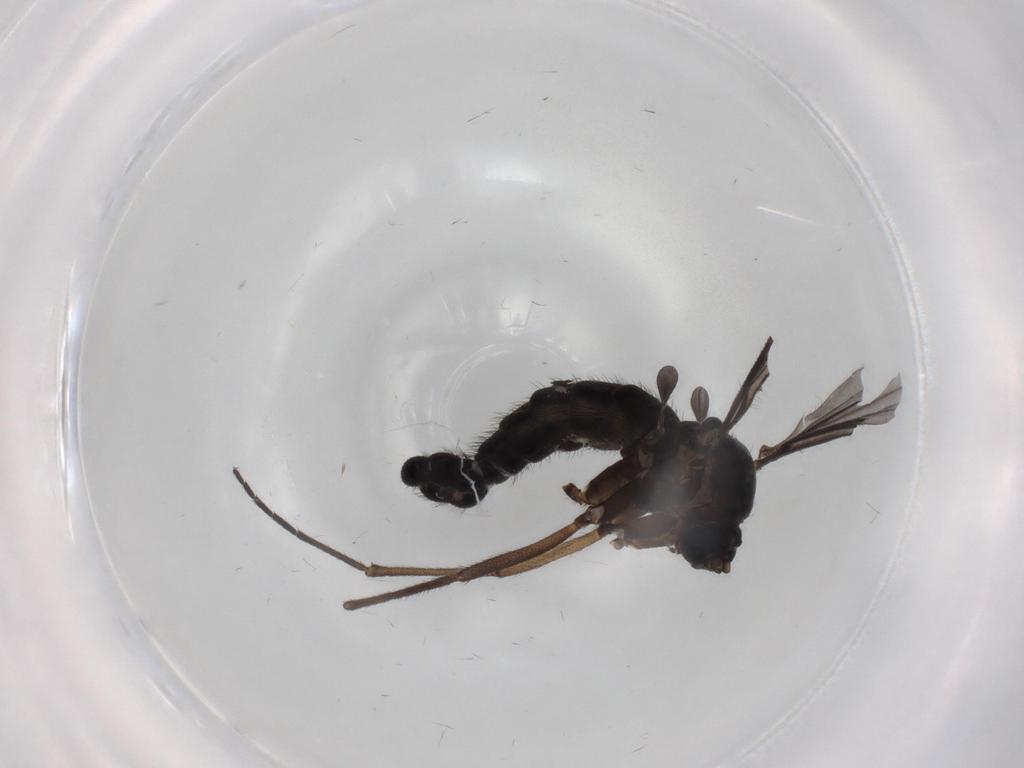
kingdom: Animalia
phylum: Arthropoda
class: Insecta
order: Diptera
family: Sciaridae
